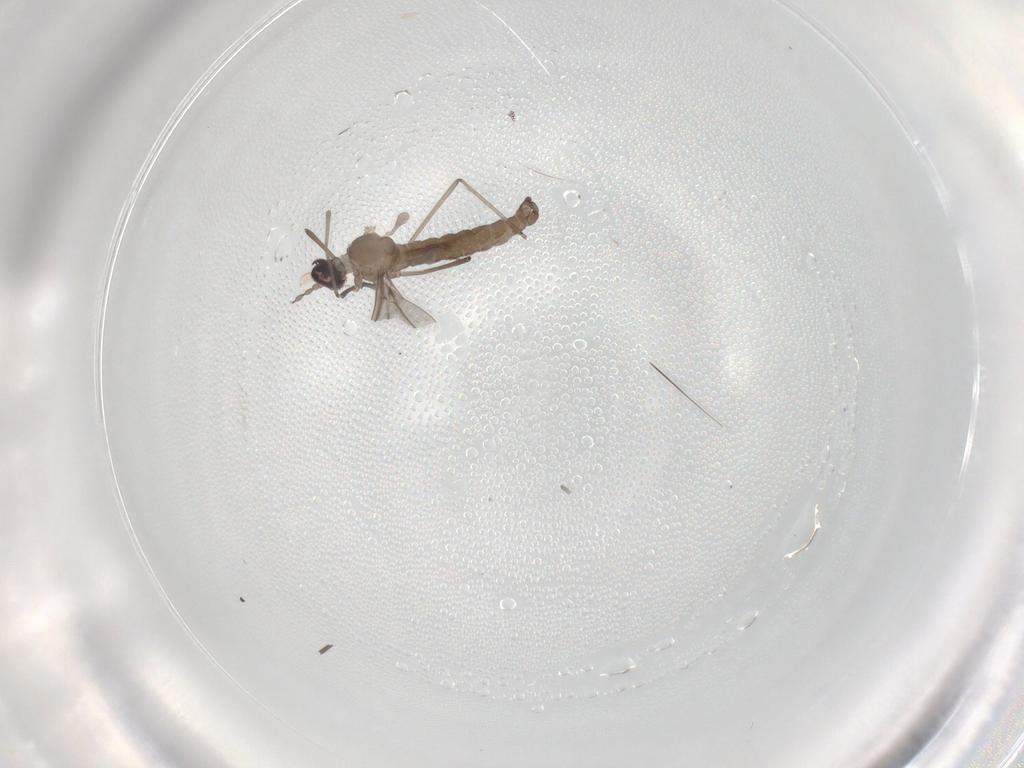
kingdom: Animalia
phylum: Arthropoda
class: Insecta
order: Diptera
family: Cecidomyiidae
